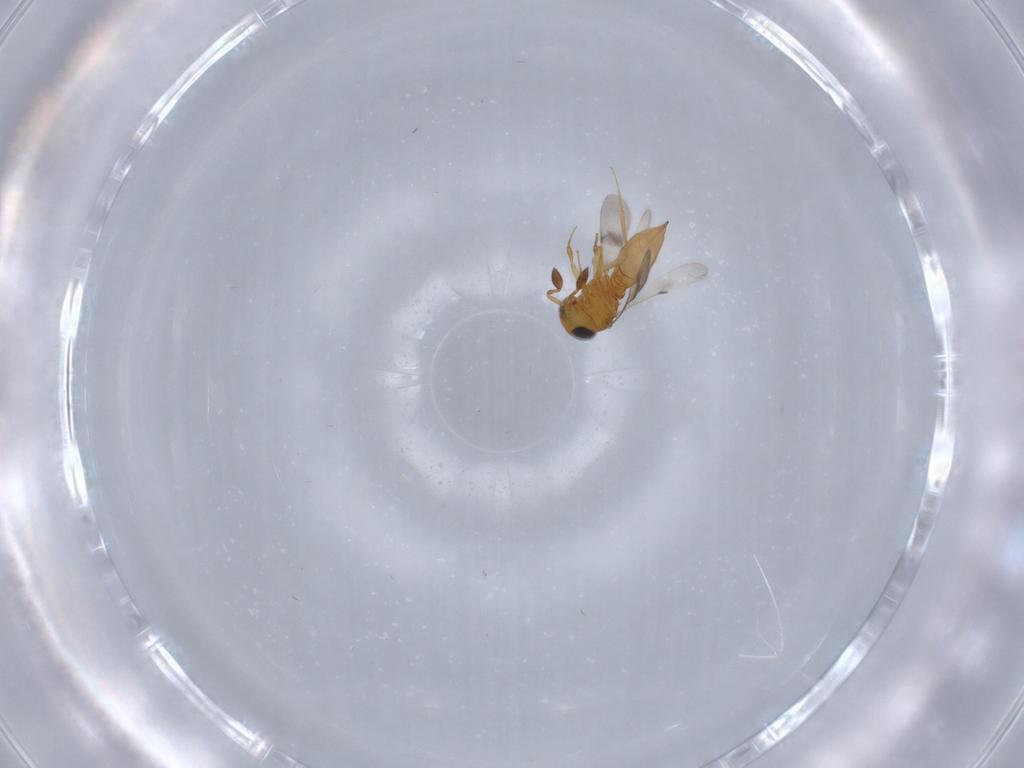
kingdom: Animalia
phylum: Arthropoda
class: Insecta
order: Hymenoptera
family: Scelionidae
